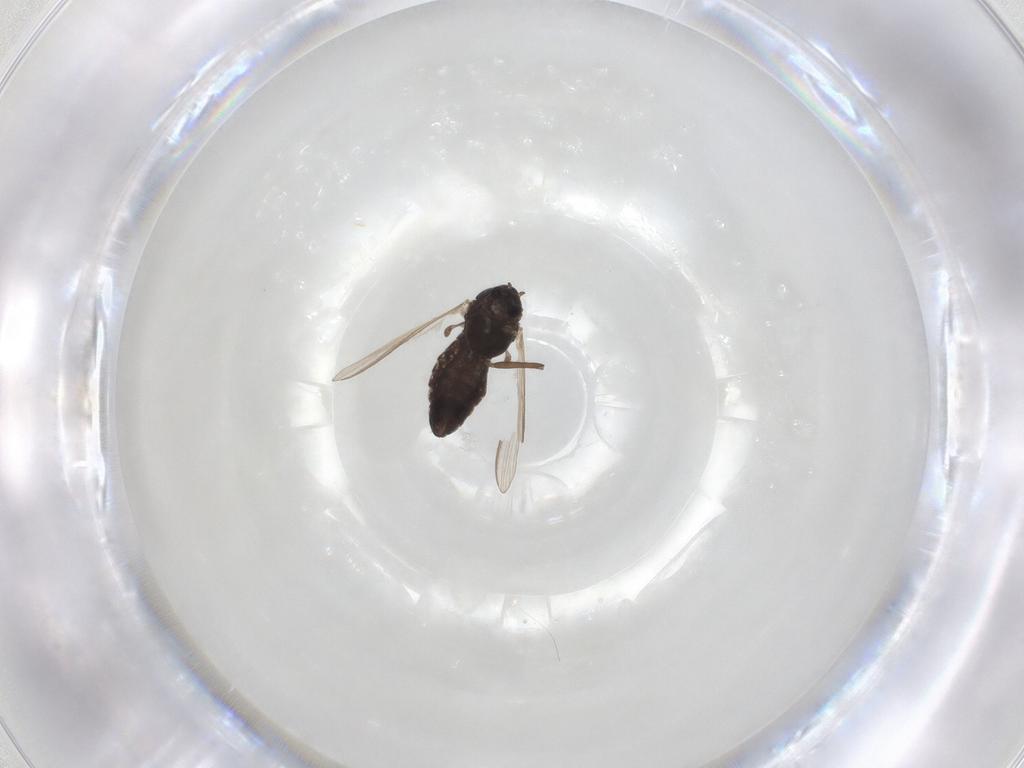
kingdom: Animalia
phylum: Arthropoda
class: Insecta
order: Diptera
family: Chironomidae
